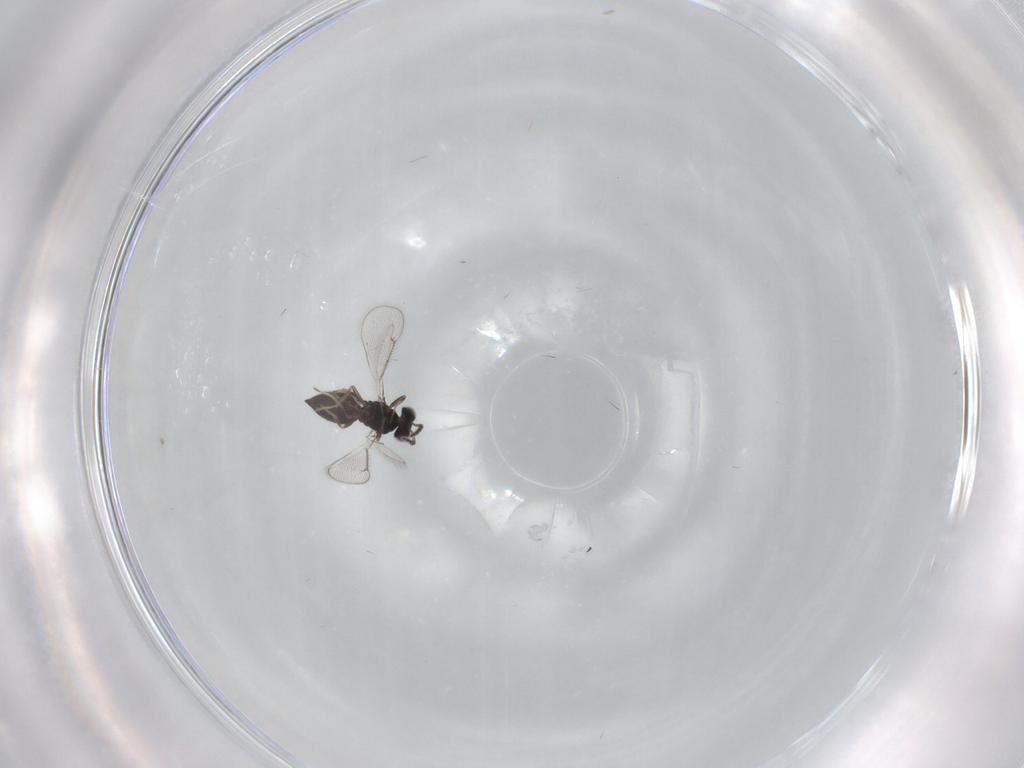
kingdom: Animalia
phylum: Arthropoda
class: Insecta
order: Hymenoptera
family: Eulophidae
